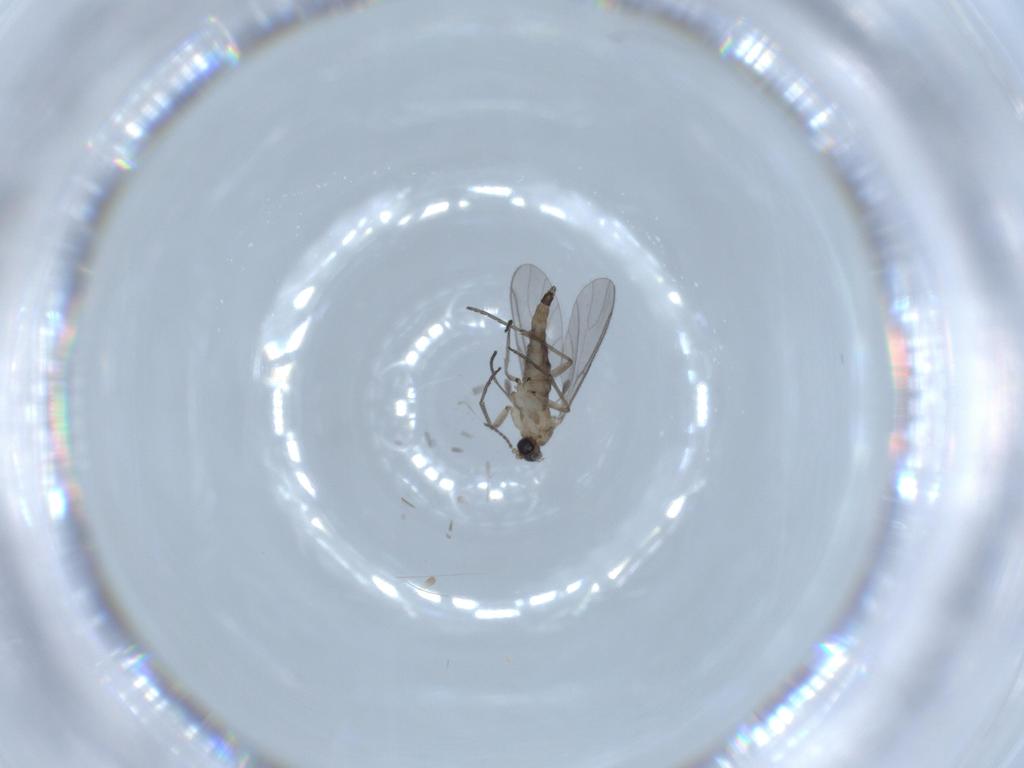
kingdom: Animalia
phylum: Arthropoda
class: Insecta
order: Diptera
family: Sciaridae
